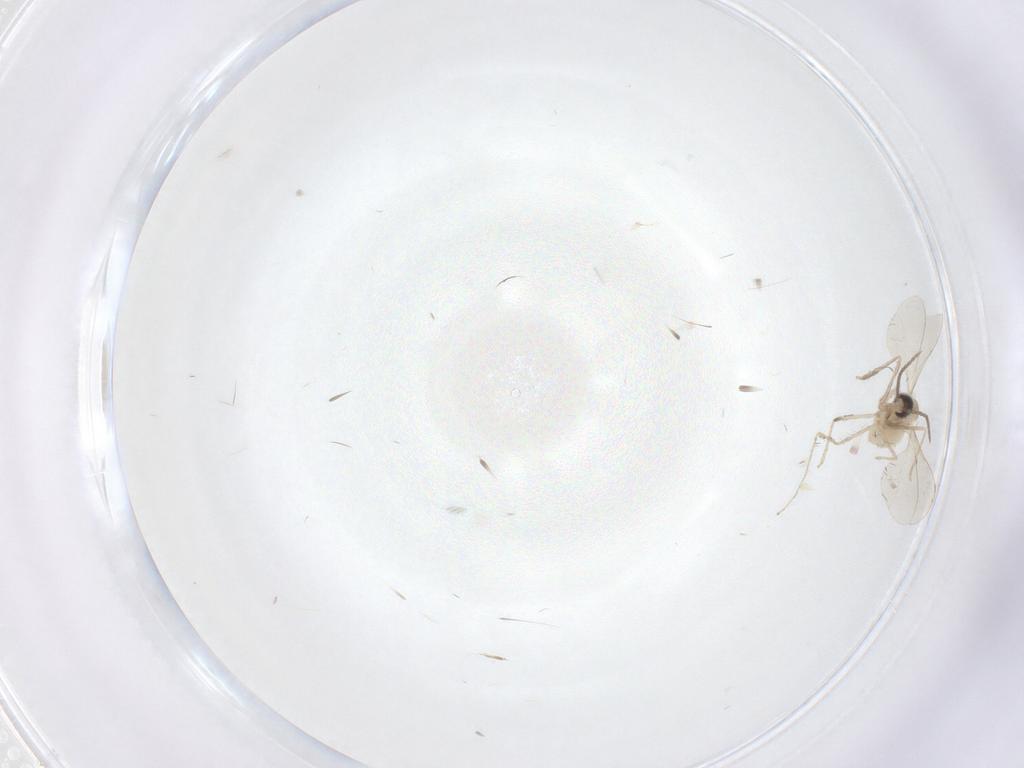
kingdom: Animalia
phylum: Arthropoda
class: Insecta
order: Diptera
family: Cecidomyiidae
